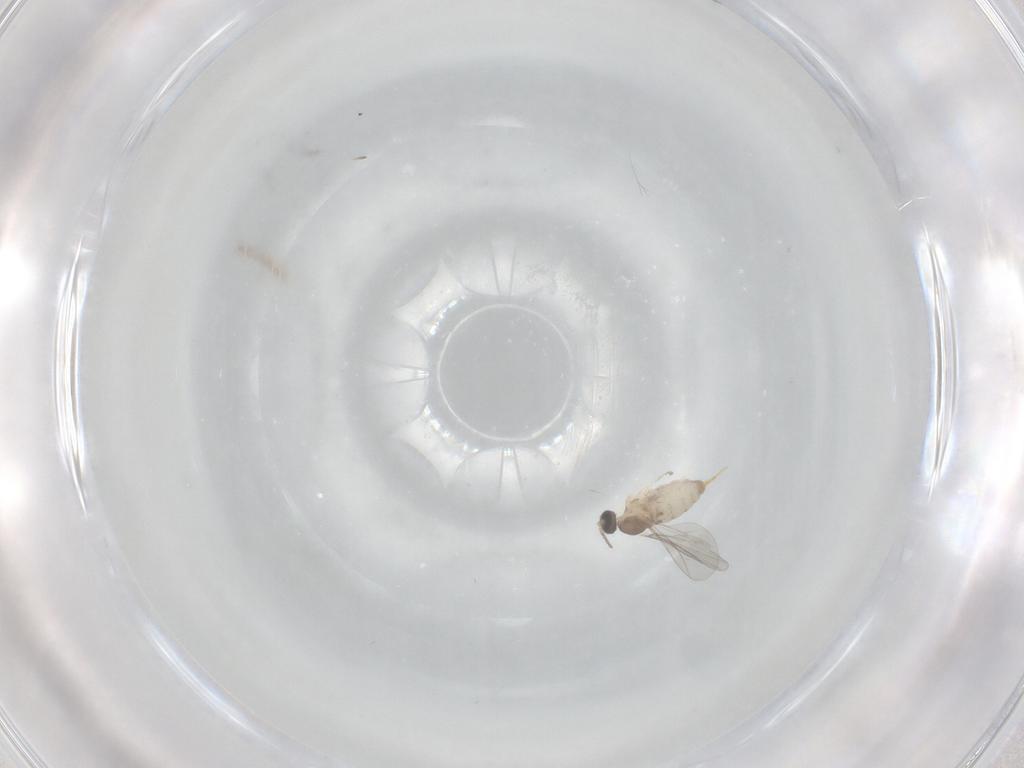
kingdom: Animalia
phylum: Arthropoda
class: Insecta
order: Diptera
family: Cecidomyiidae
